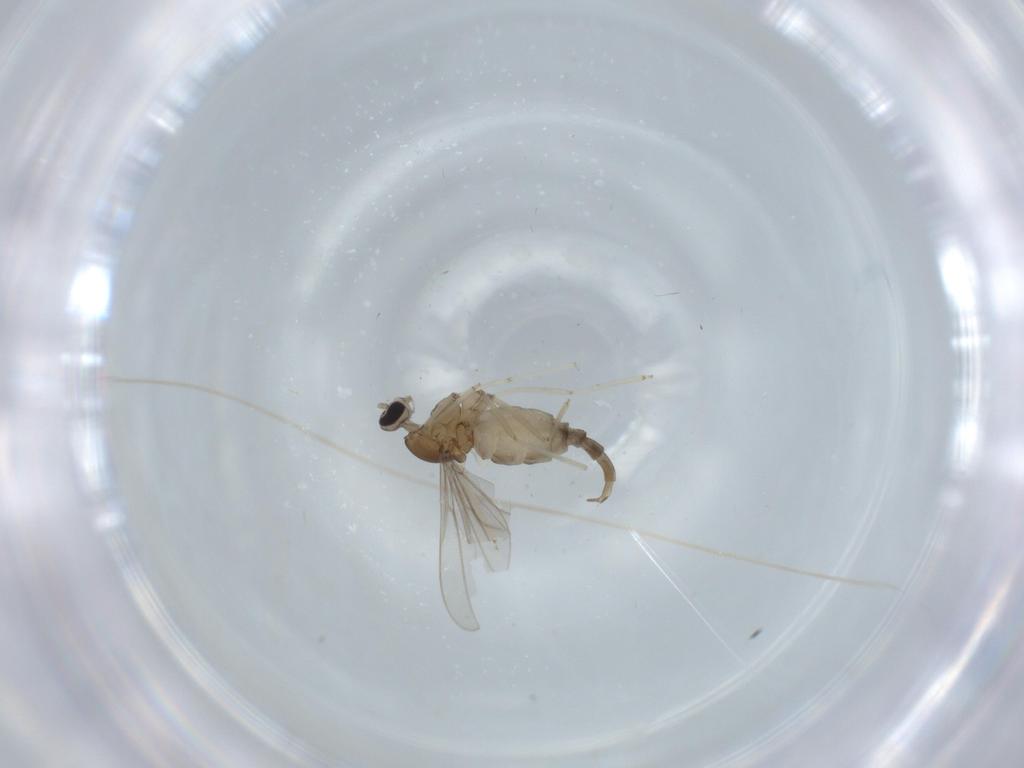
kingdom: Animalia
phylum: Arthropoda
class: Insecta
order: Diptera
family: Cecidomyiidae
